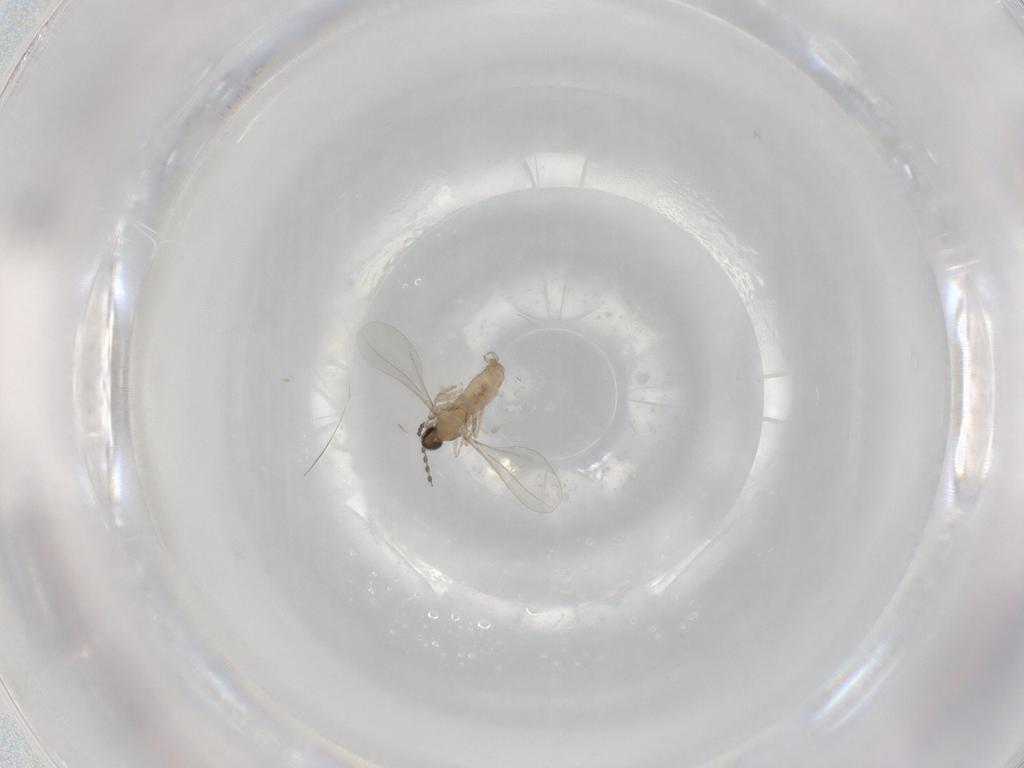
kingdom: Animalia
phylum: Arthropoda
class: Insecta
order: Diptera
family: Cecidomyiidae
